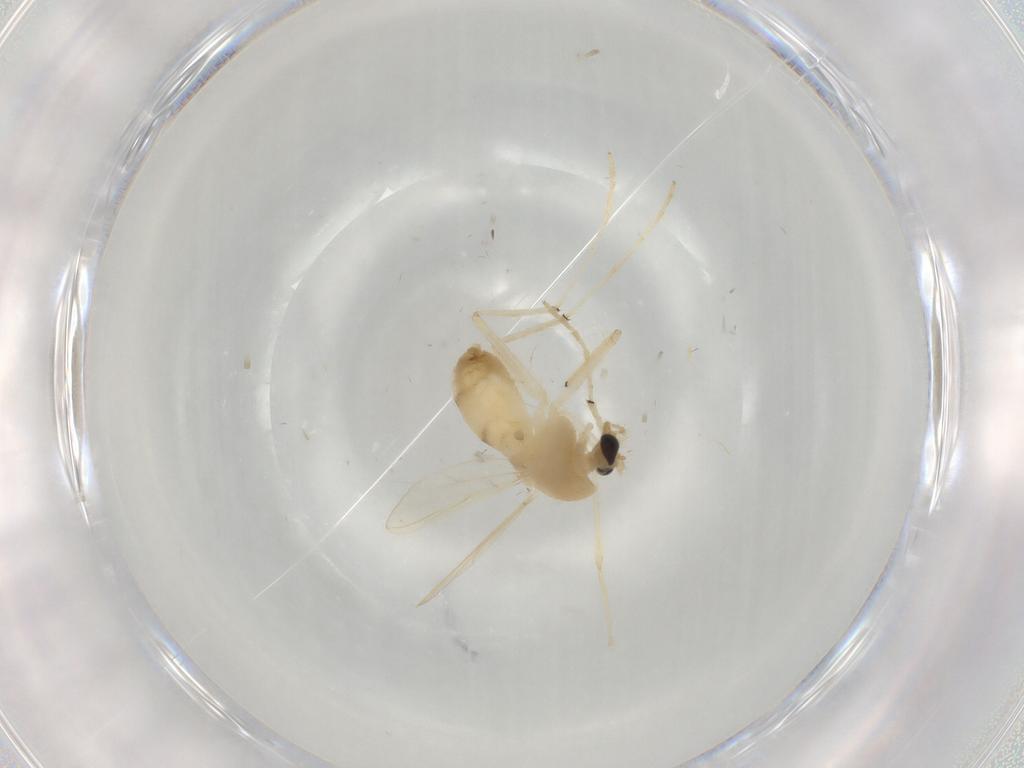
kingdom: Animalia
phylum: Arthropoda
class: Insecta
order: Diptera
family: Chironomidae
